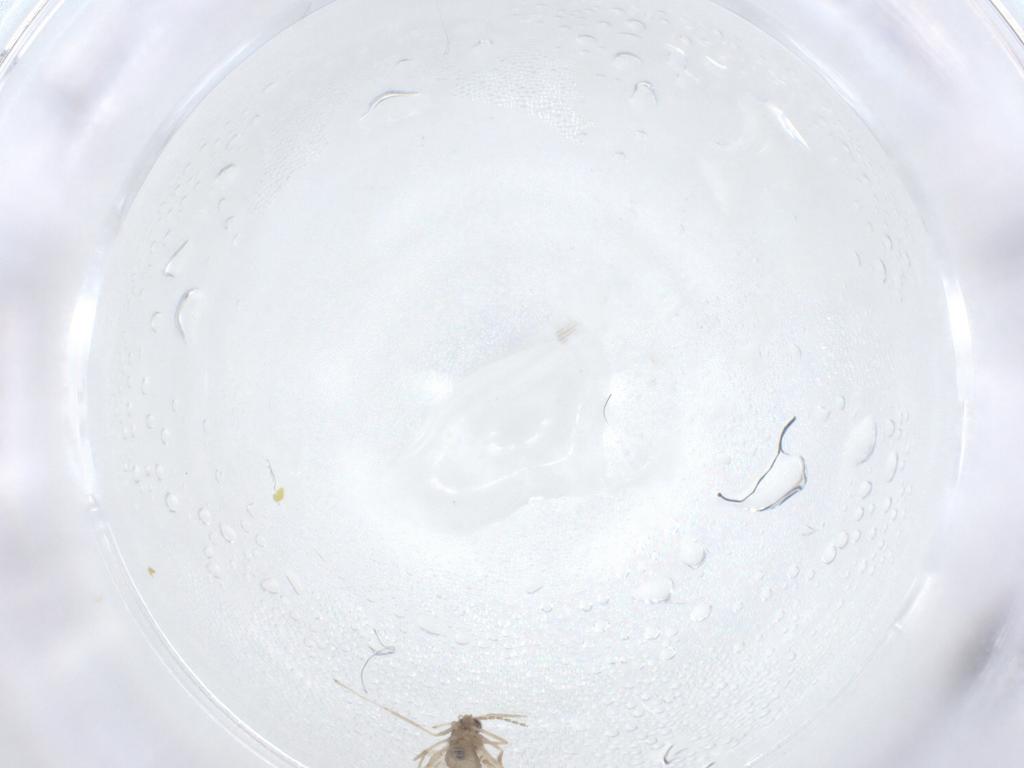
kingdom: Animalia
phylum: Arthropoda
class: Insecta
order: Diptera
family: Cecidomyiidae
